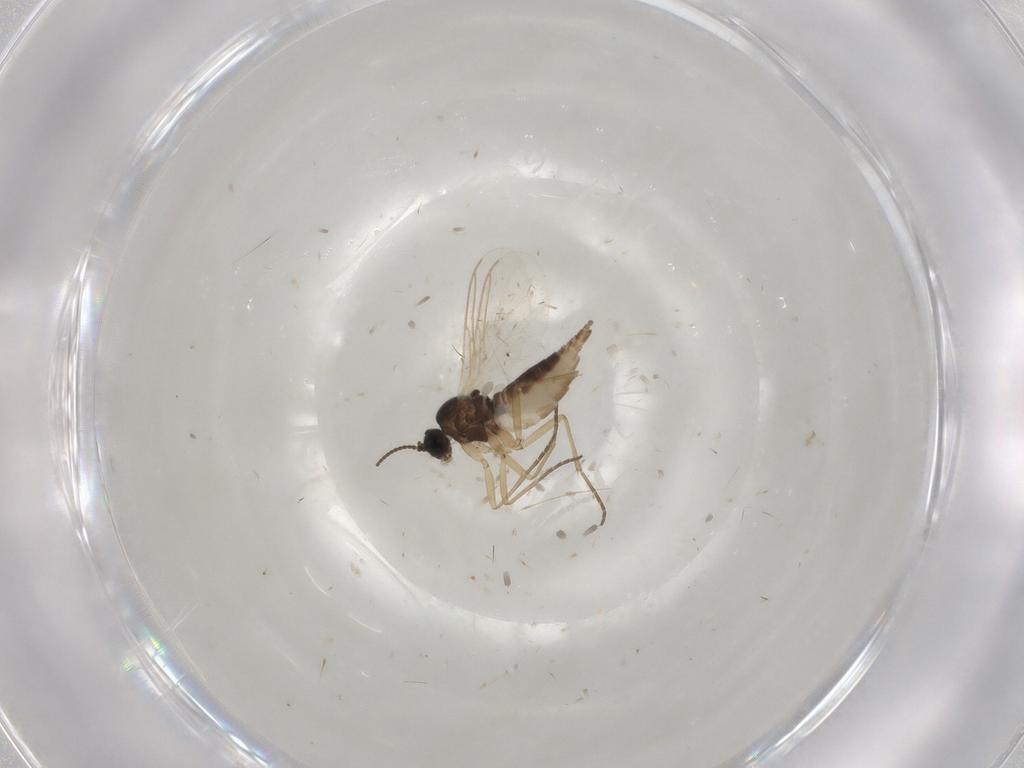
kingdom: Animalia
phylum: Arthropoda
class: Insecta
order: Diptera
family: Sciaridae
